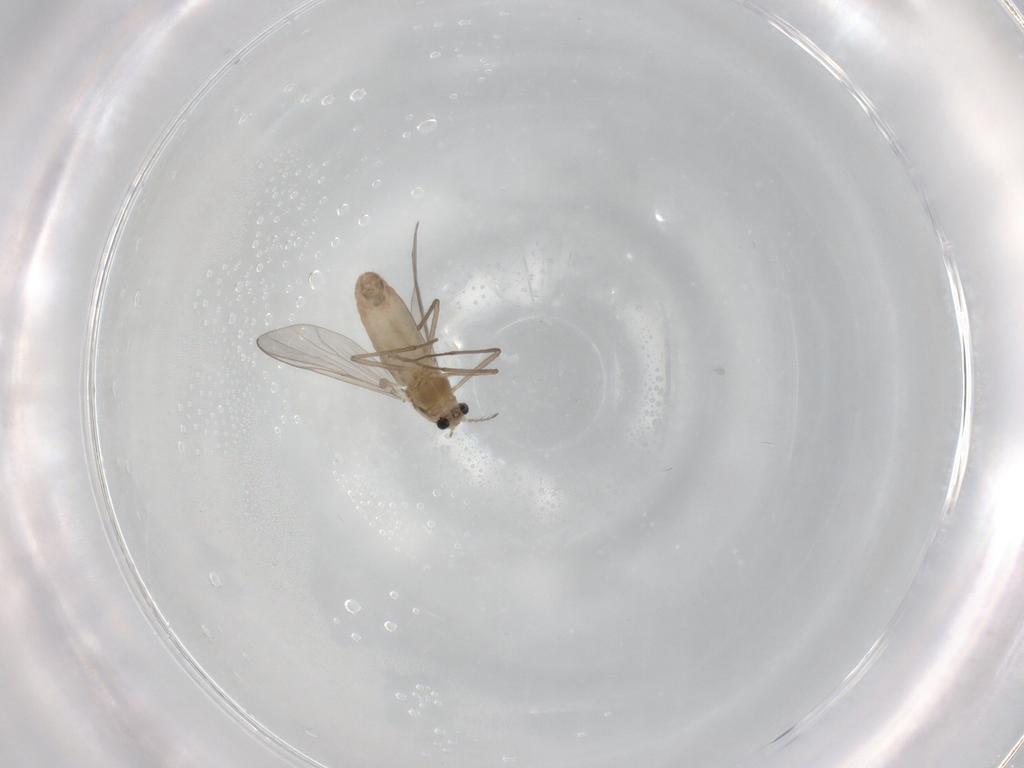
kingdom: Animalia
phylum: Arthropoda
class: Insecta
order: Diptera
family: Chironomidae
